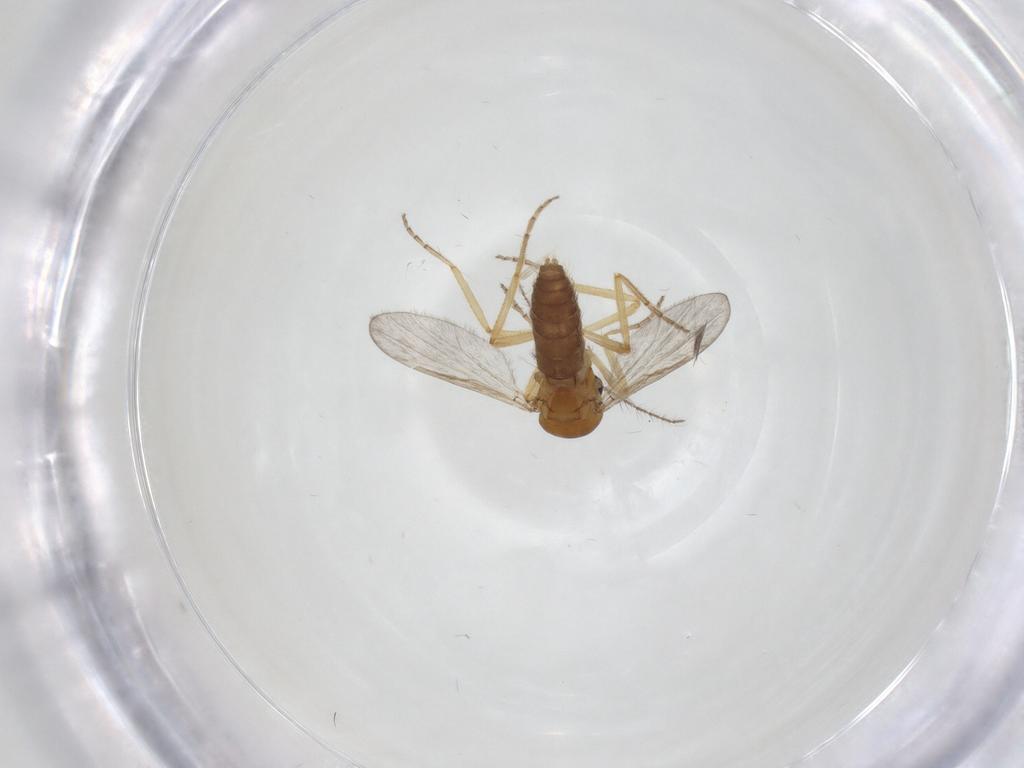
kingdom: Animalia
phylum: Arthropoda
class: Insecta
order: Diptera
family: Ceratopogonidae
